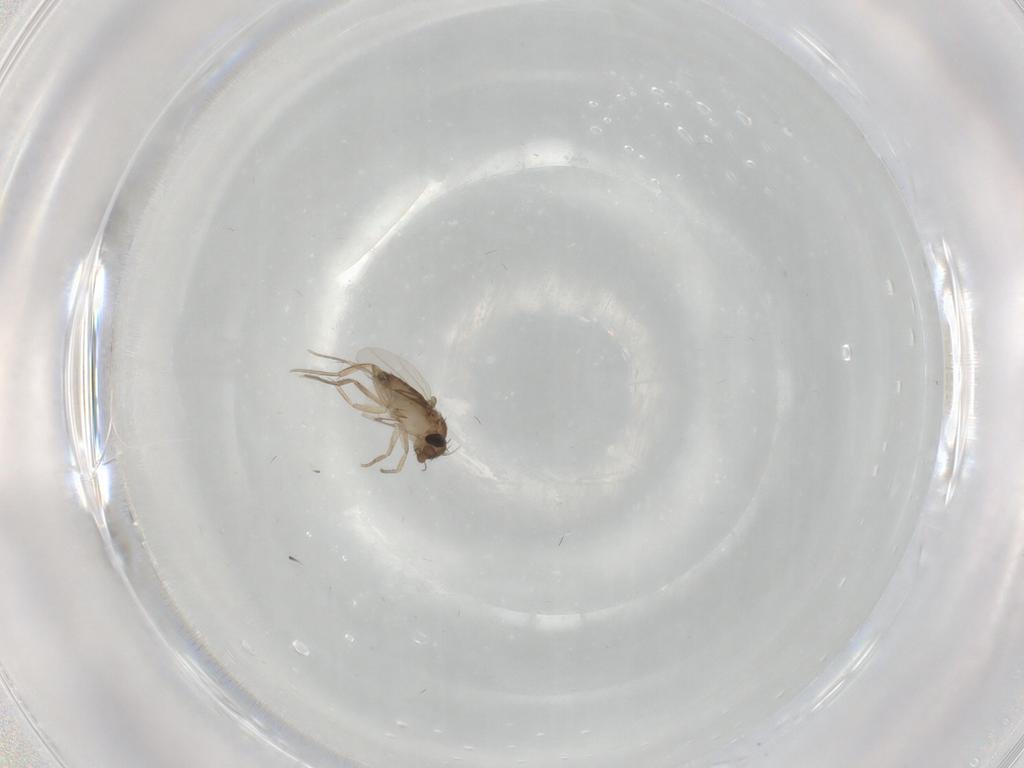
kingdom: Animalia
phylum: Arthropoda
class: Insecta
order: Diptera
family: Phoridae
